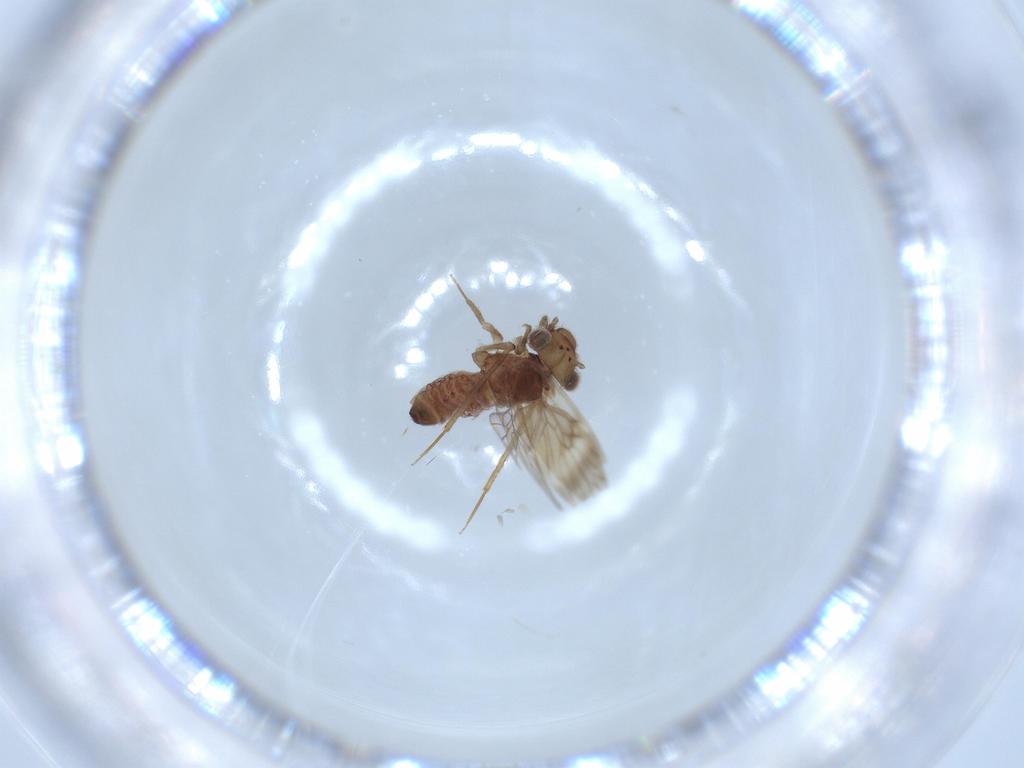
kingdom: Animalia
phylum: Arthropoda
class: Insecta
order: Psocodea
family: Lepidopsocidae
